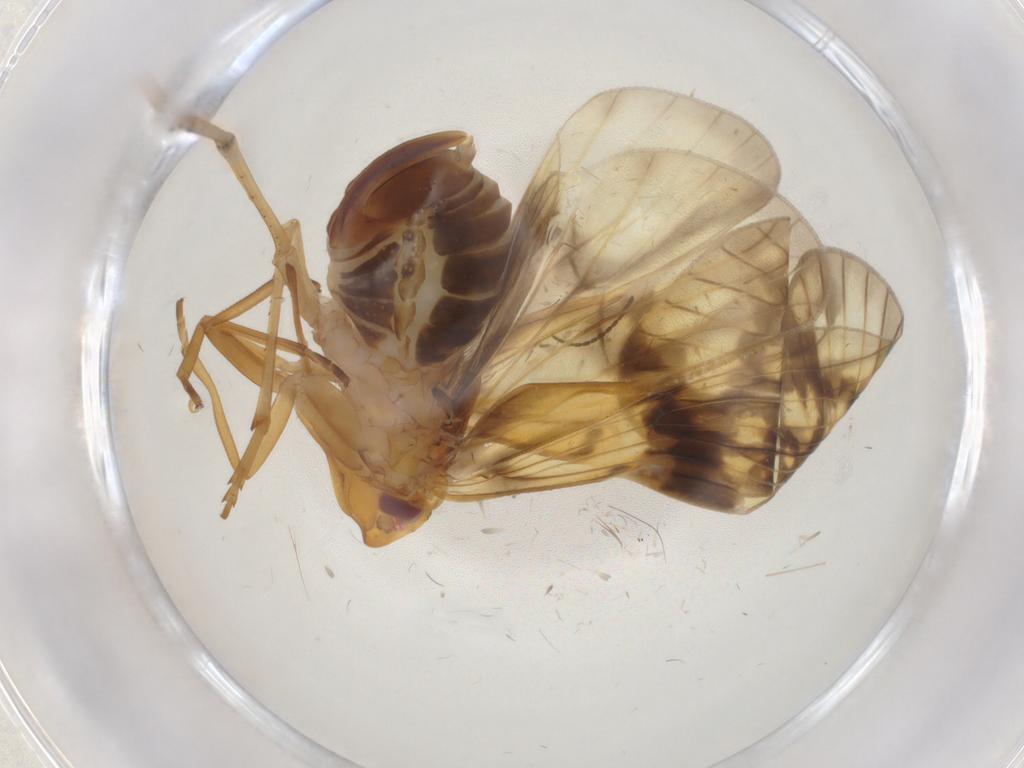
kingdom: Animalia
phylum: Arthropoda
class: Insecta
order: Hemiptera
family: Cixiidae
